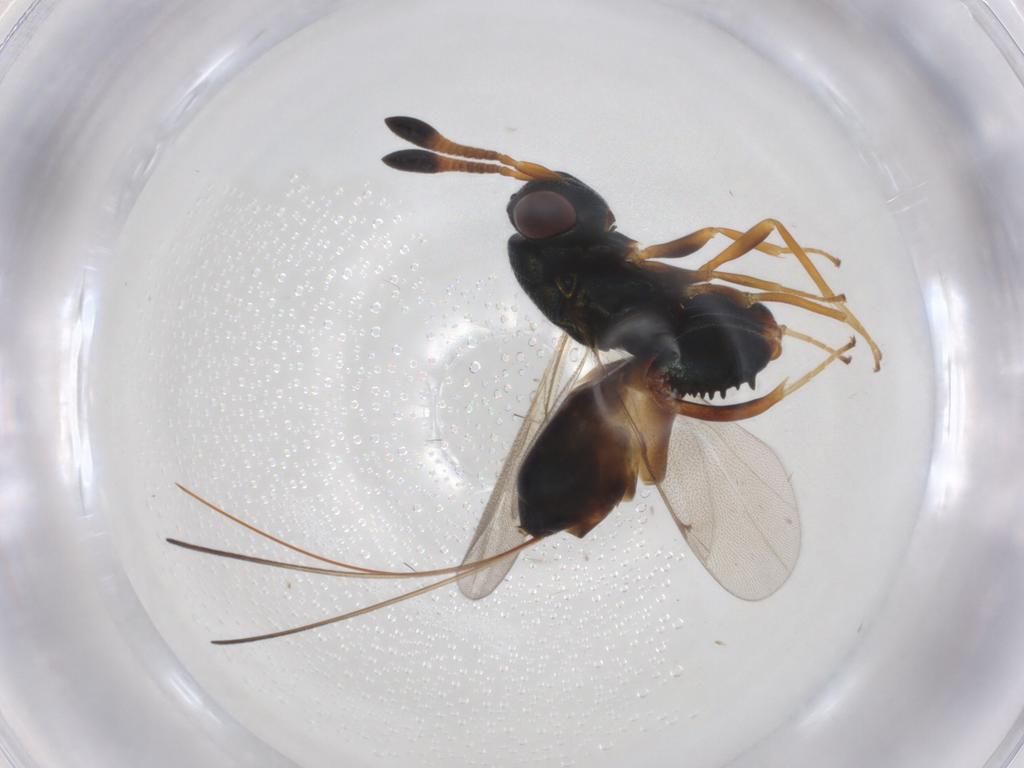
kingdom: Animalia
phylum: Arthropoda
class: Insecta
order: Hymenoptera
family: Torymidae
